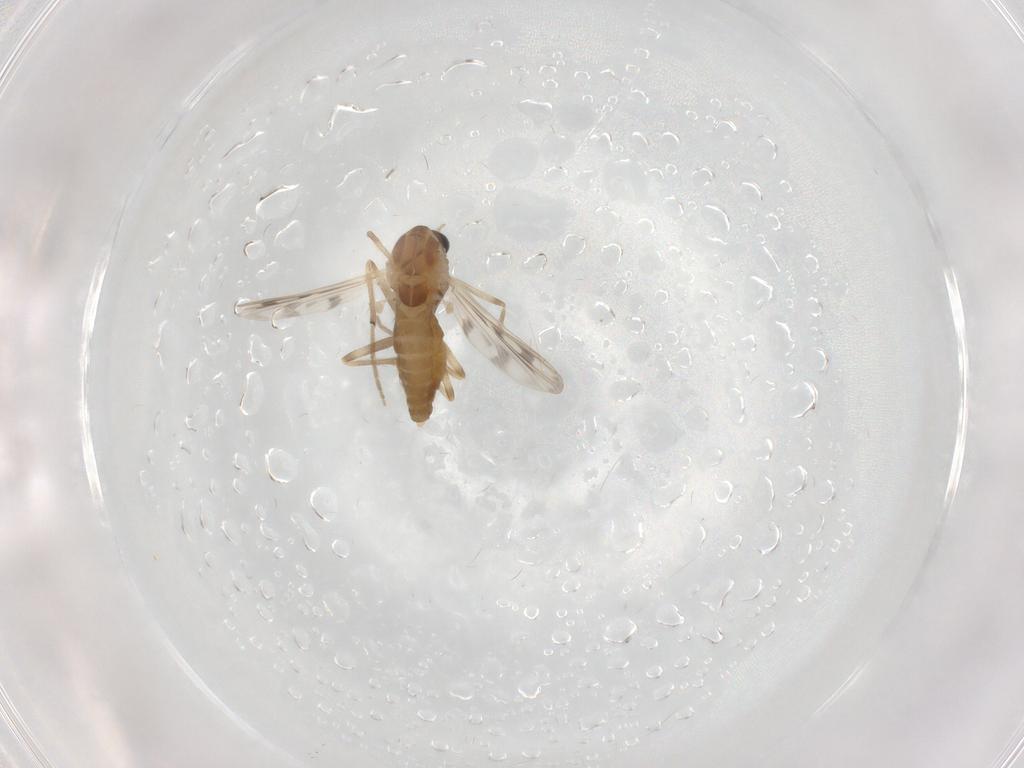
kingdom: Animalia
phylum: Arthropoda
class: Insecta
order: Diptera
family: Chironomidae
